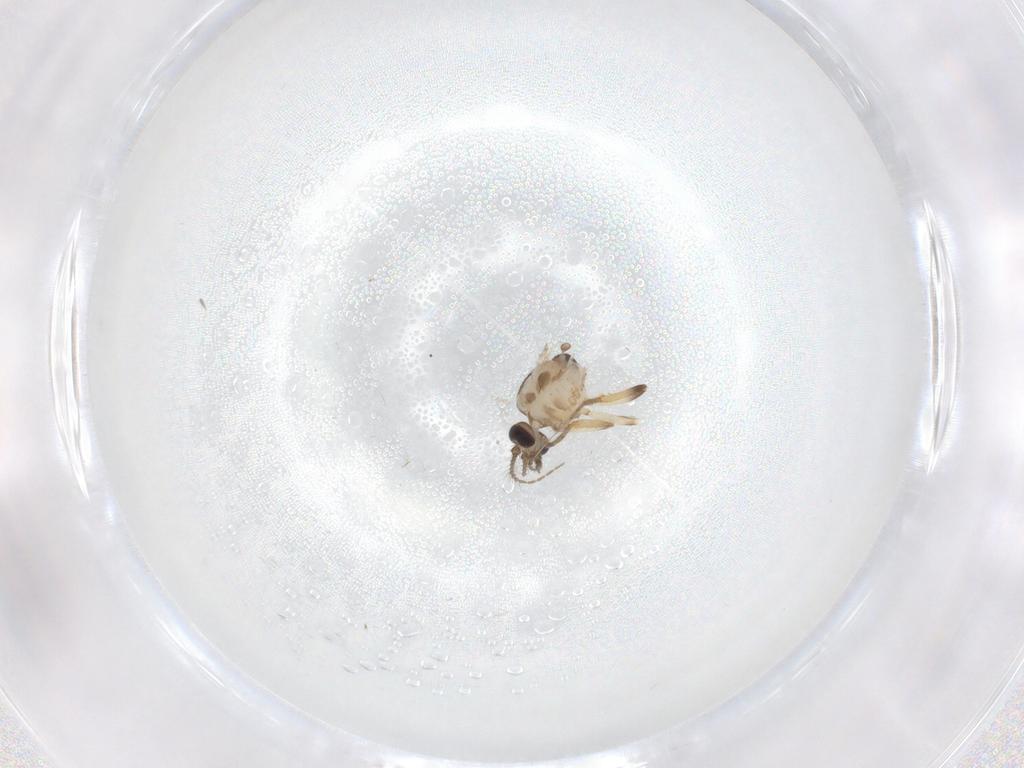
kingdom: Animalia
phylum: Arthropoda
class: Insecta
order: Diptera
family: Ceratopogonidae
